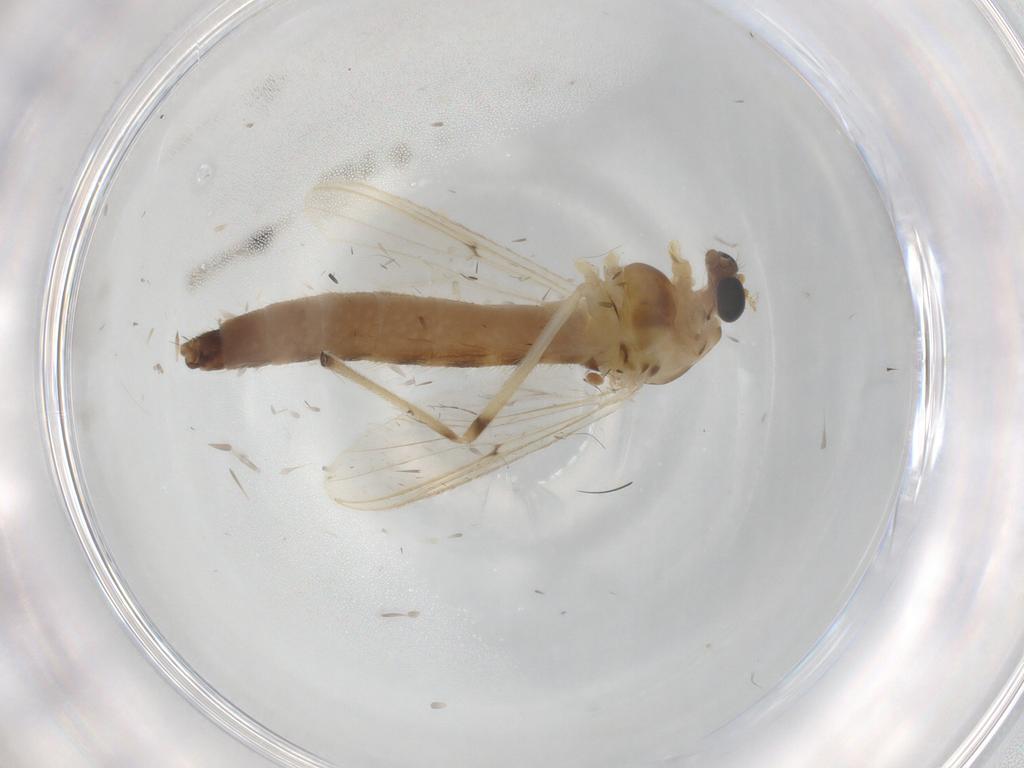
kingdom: Animalia
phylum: Arthropoda
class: Insecta
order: Diptera
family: Chironomidae
